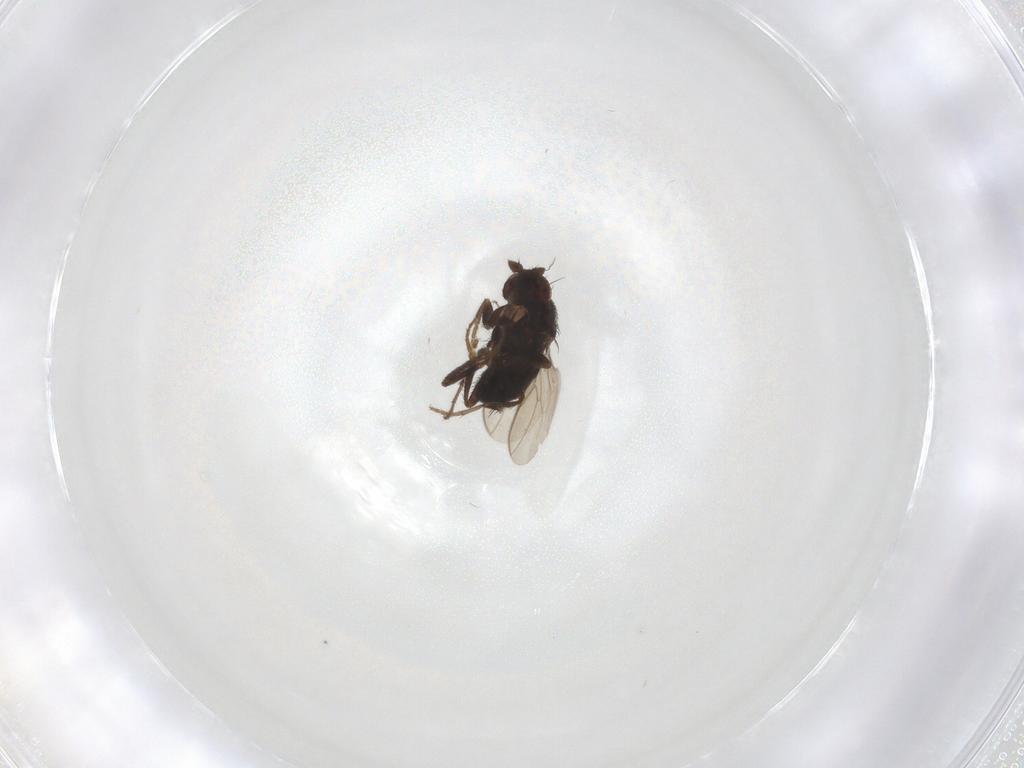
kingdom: Animalia
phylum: Arthropoda
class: Insecta
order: Diptera
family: Sphaeroceridae
